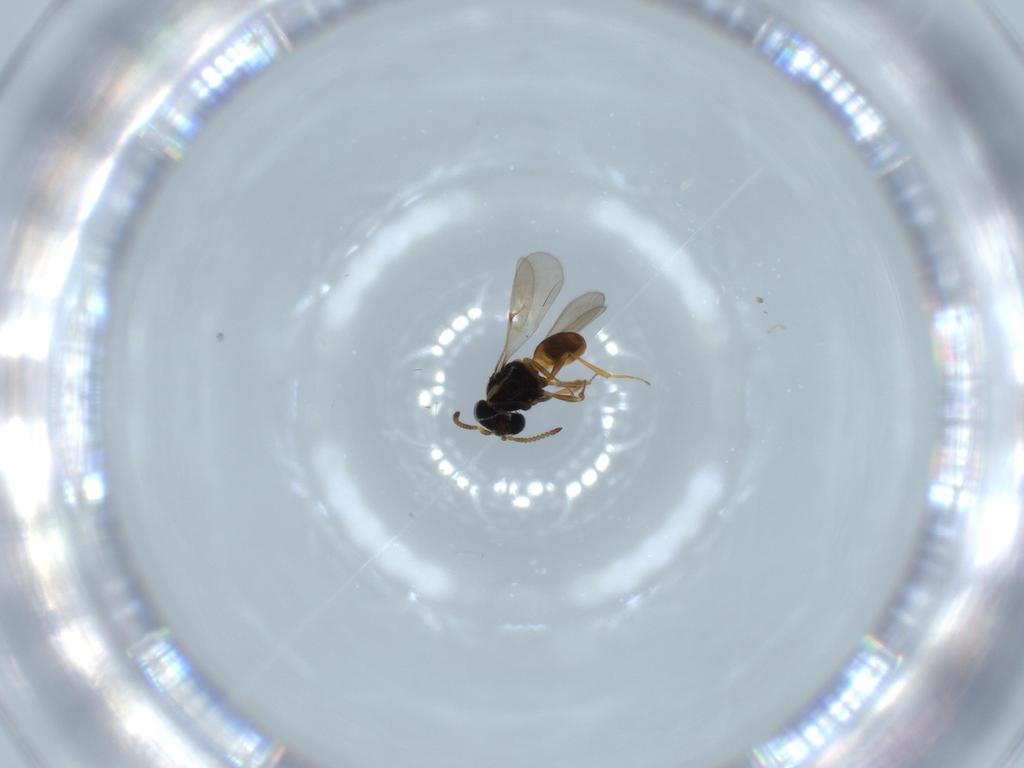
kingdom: Animalia
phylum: Arthropoda
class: Insecta
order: Hymenoptera
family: Scelionidae
